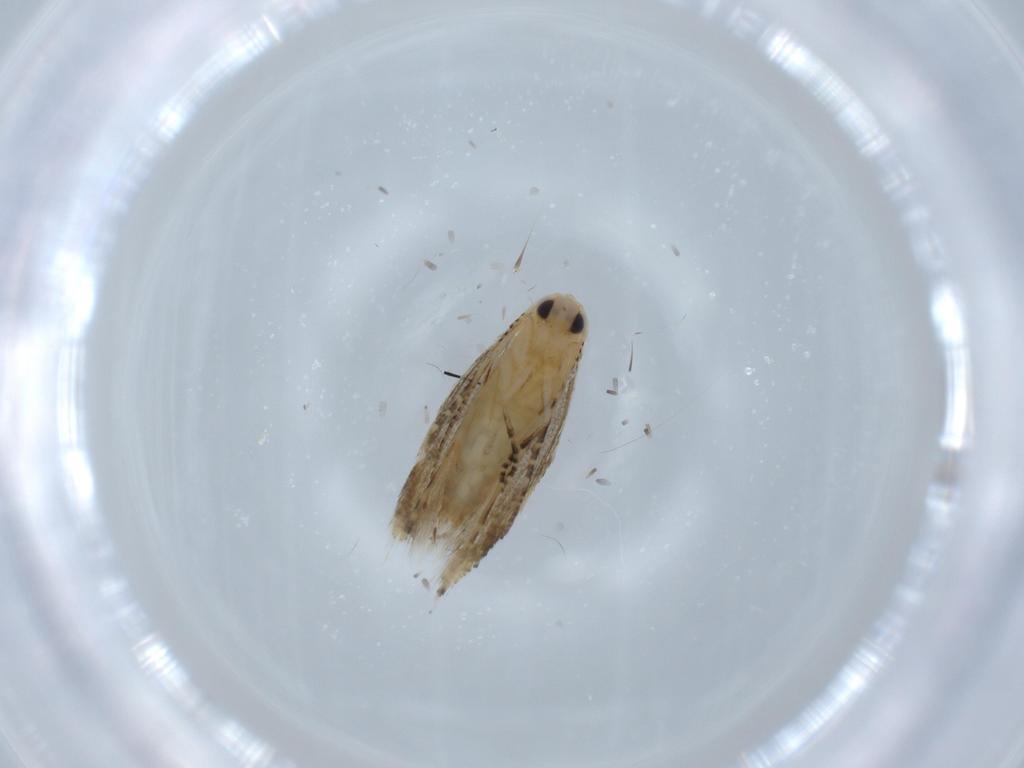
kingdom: Animalia
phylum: Arthropoda
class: Insecta
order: Lepidoptera
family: Bucculatricidae
